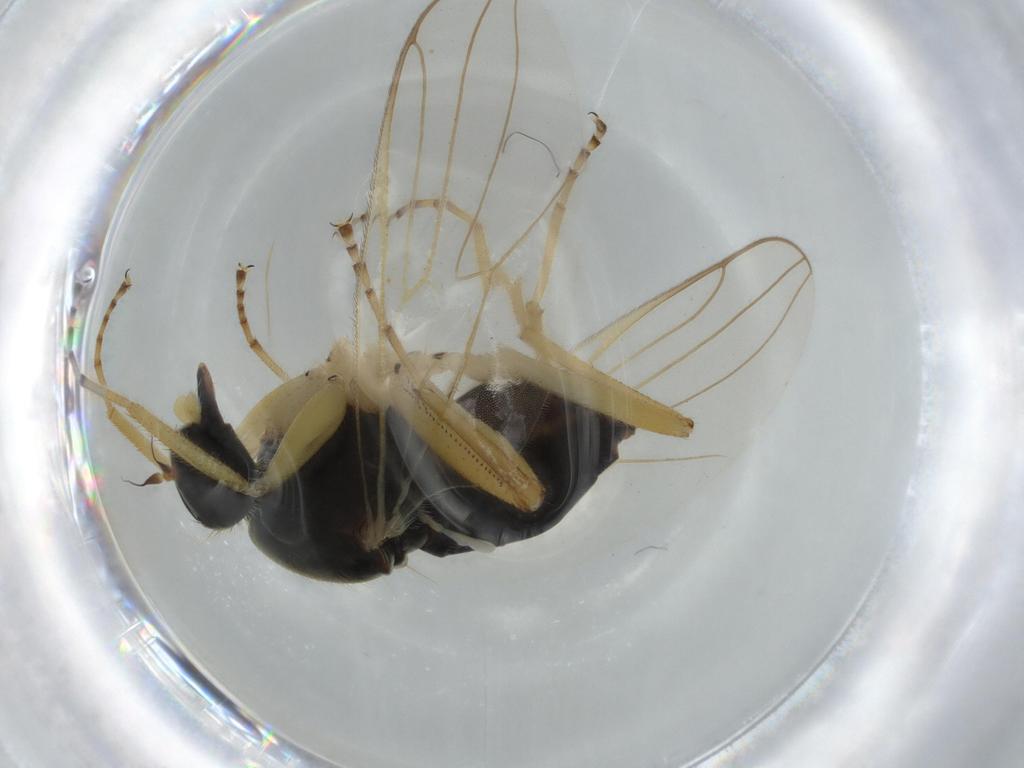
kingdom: Animalia
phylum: Arthropoda
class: Insecta
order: Diptera
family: Hybotidae
